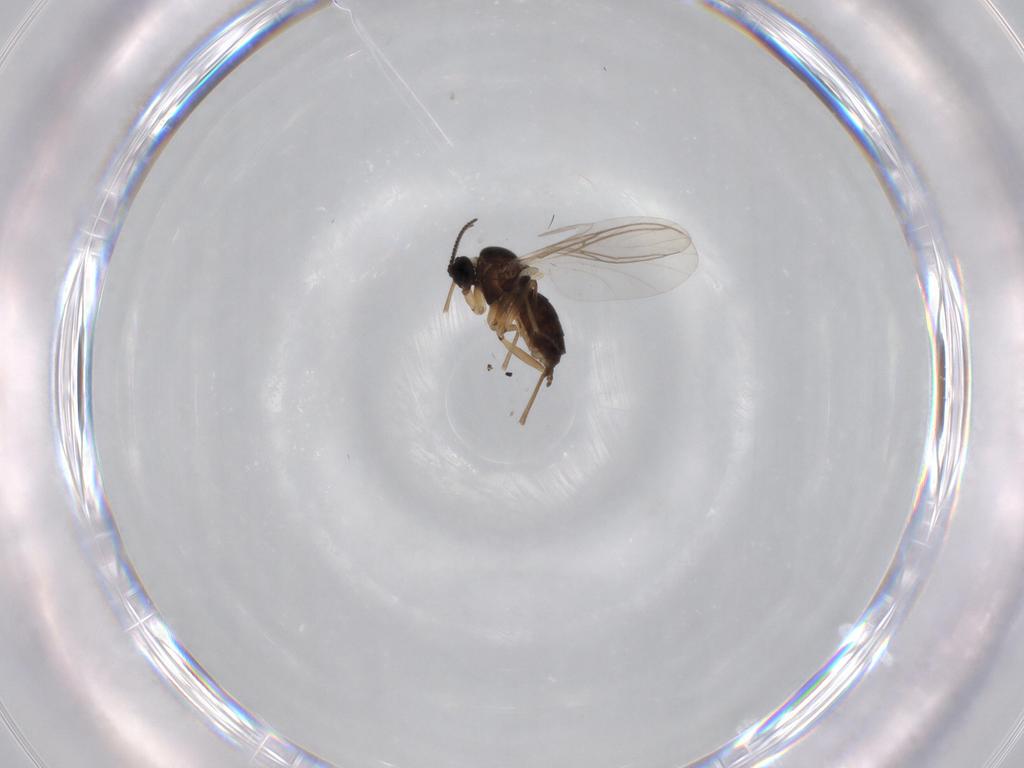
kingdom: Animalia
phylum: Arthropoda
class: Insecta
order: Diptera
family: Sciaridae
